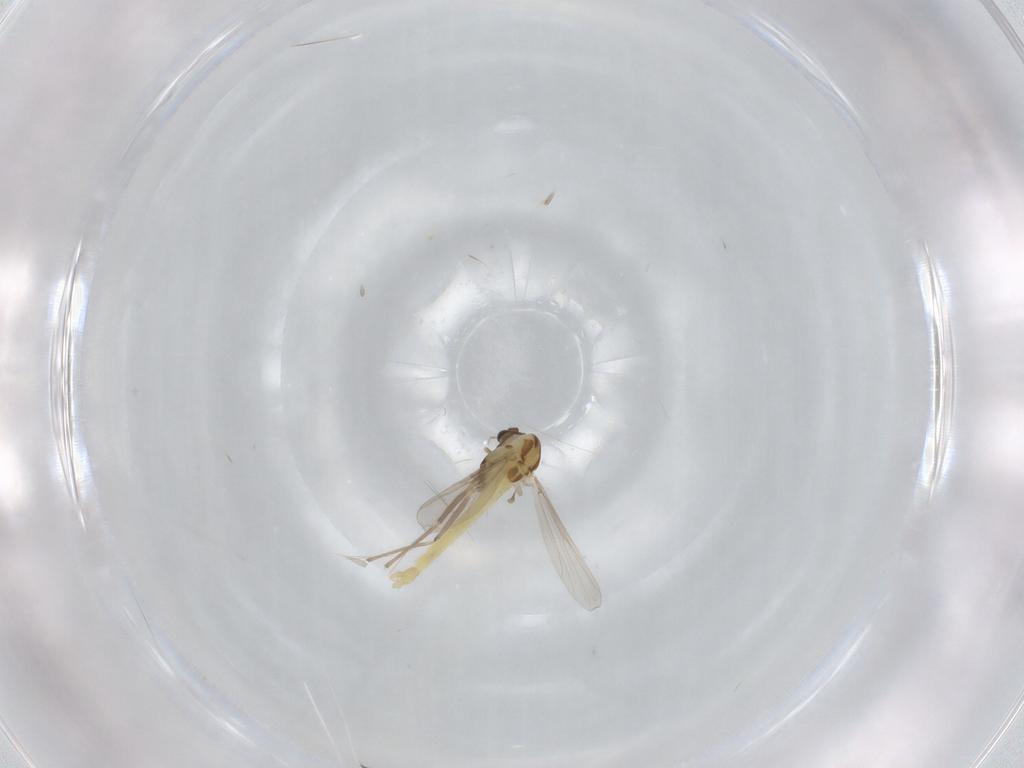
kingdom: Animalia
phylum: Arthropoda
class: Insecta
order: Diptera
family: Chironomidae
